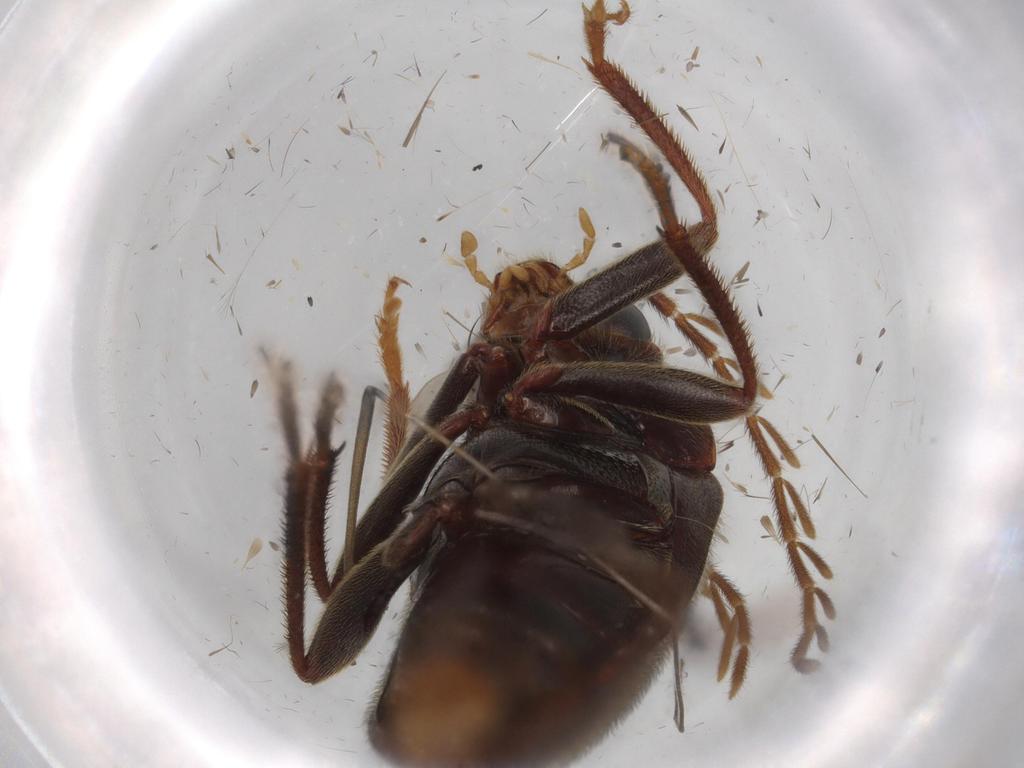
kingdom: Animalia
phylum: Arthropoda
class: Insecta
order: Coleoptera
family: Ptilodactylidae
